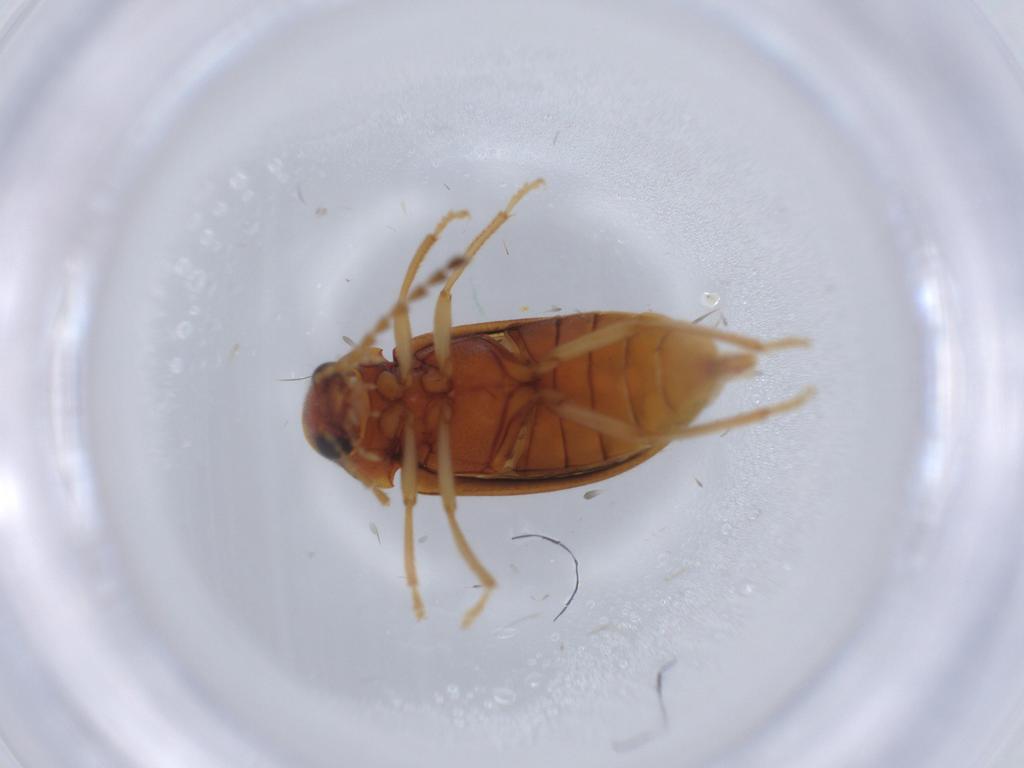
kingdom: Animalia
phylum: Arthropoda
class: Insecta
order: Coleoptera
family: Ptilodactylidae
